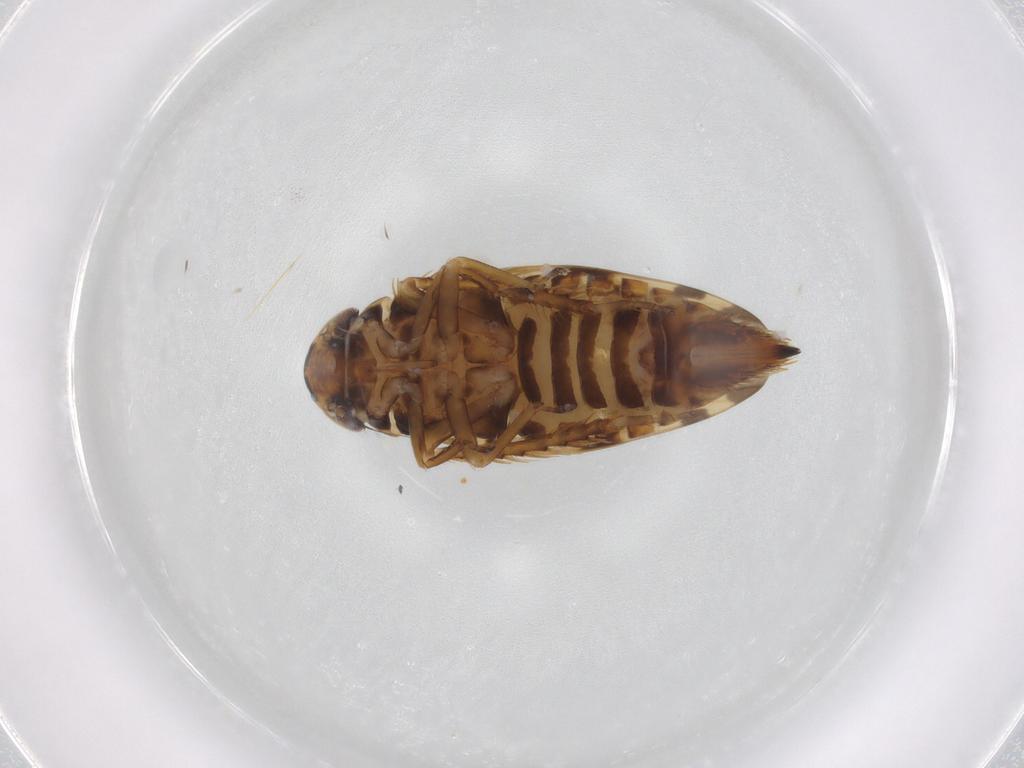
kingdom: Animalia
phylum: Arthropoda
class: Insecta
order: Hemiptera
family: Cicadellidae
